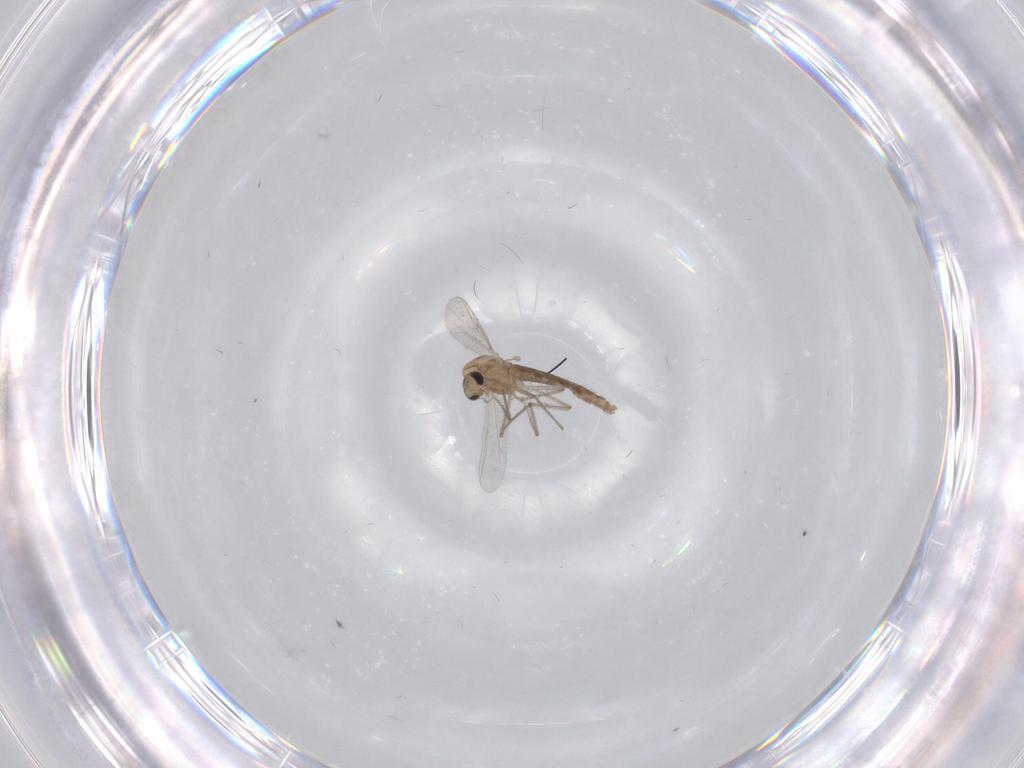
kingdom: Animalia
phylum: Arthropoda
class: Insecta
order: Diptera
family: Chironomidae
